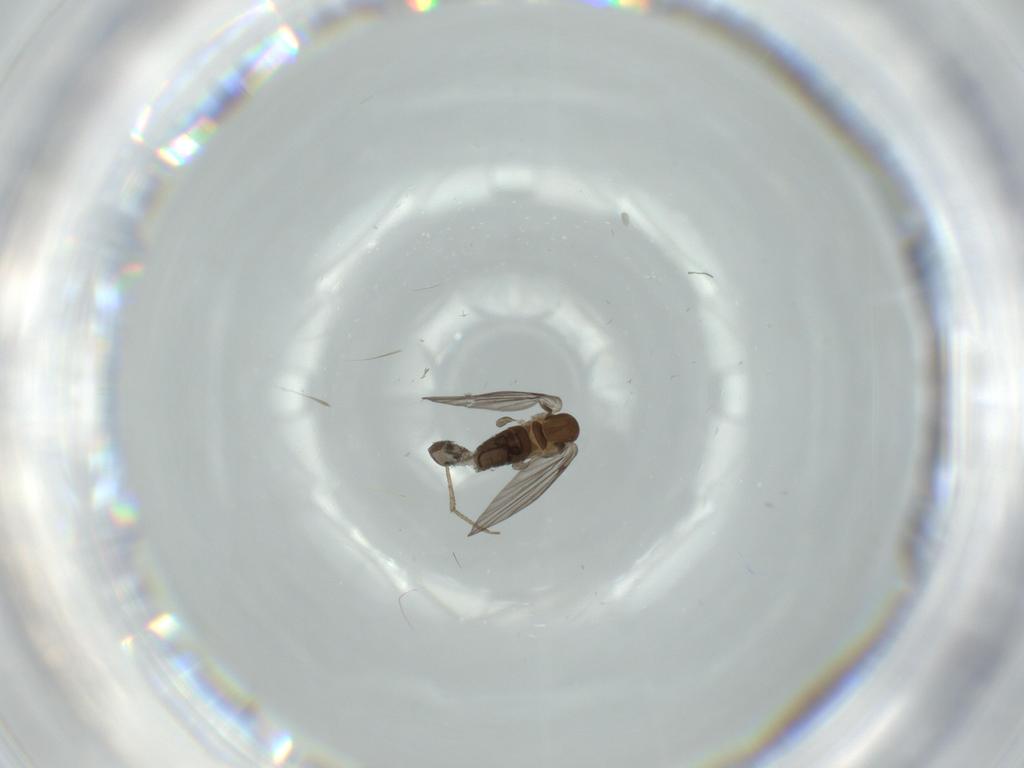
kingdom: Animalia
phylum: Arthropoda
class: Insecta
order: Diptera
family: Psychodidae
